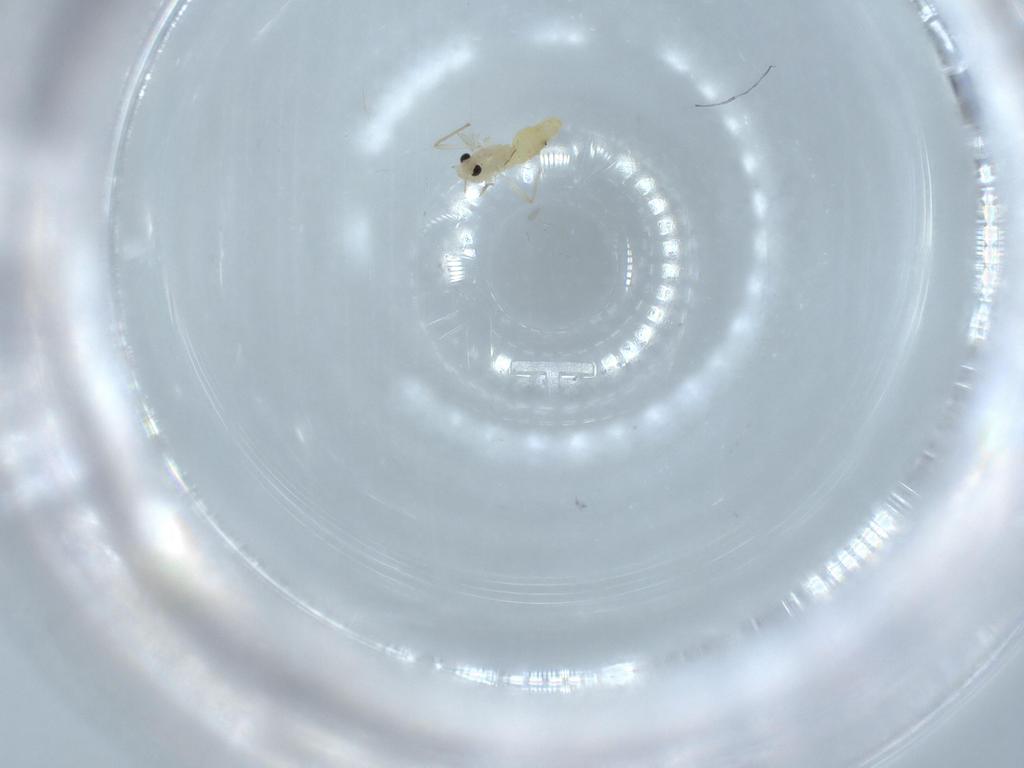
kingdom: Animalia
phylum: Arthropoda
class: Insecta
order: Diptera
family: Chironomidae
